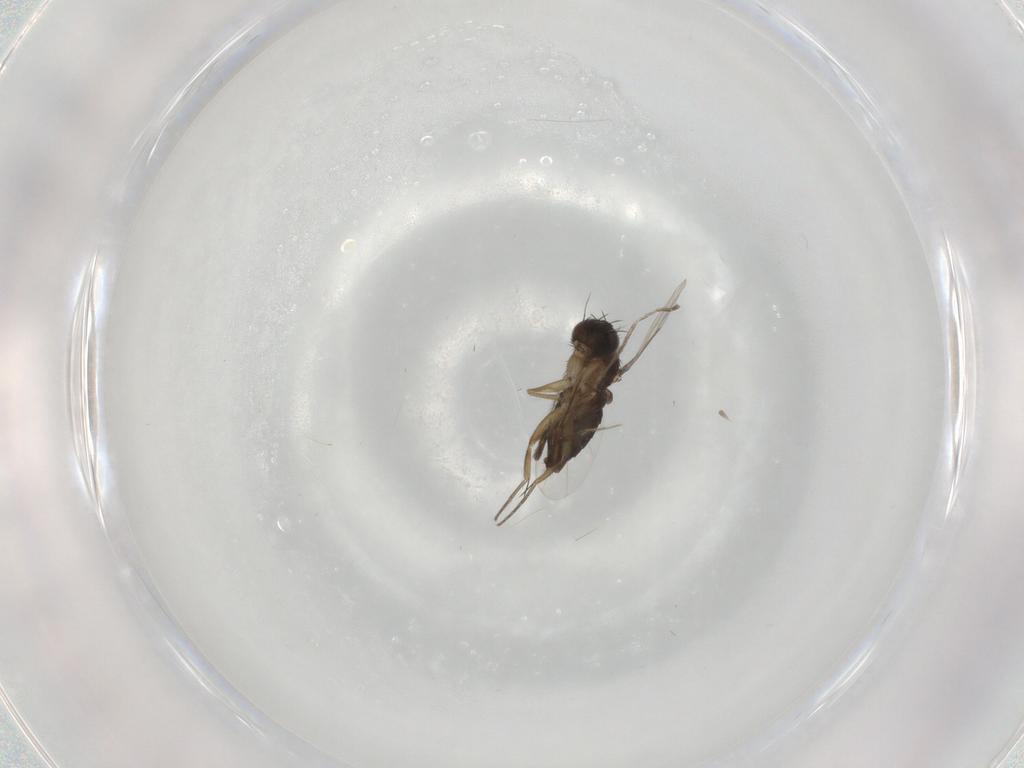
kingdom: Animalia
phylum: Arthropoda
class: Insecta
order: Diptera
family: Phoridae
